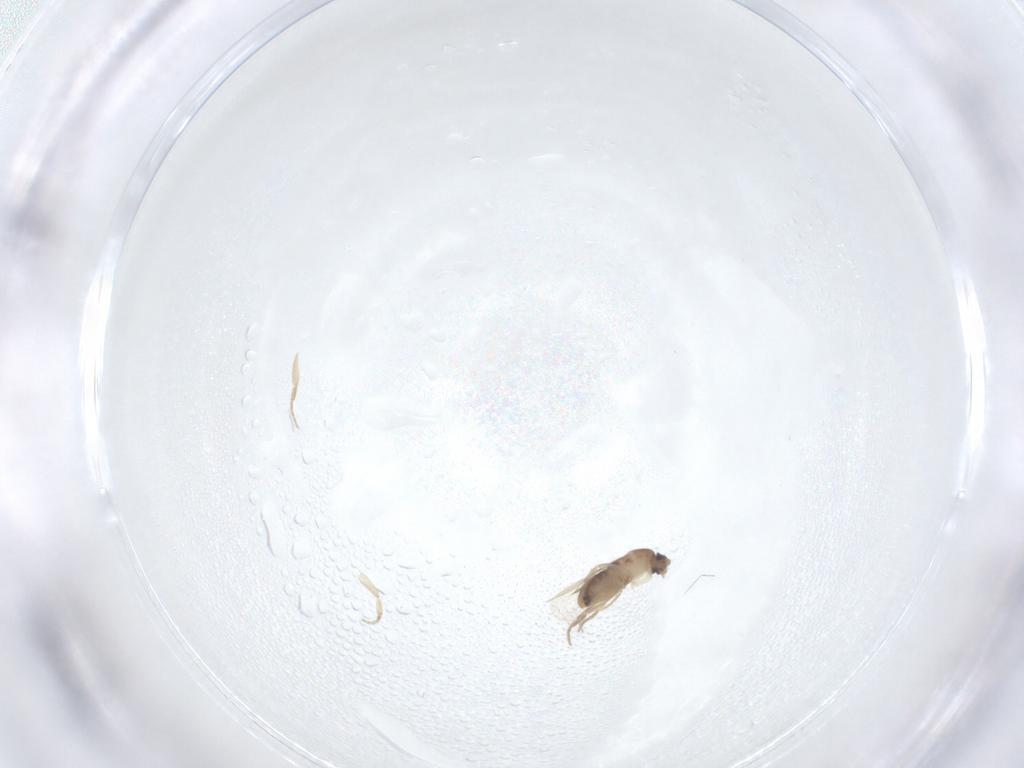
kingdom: Animalia
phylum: Arthropoda
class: Insecta
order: Diptera
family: Phoridae
